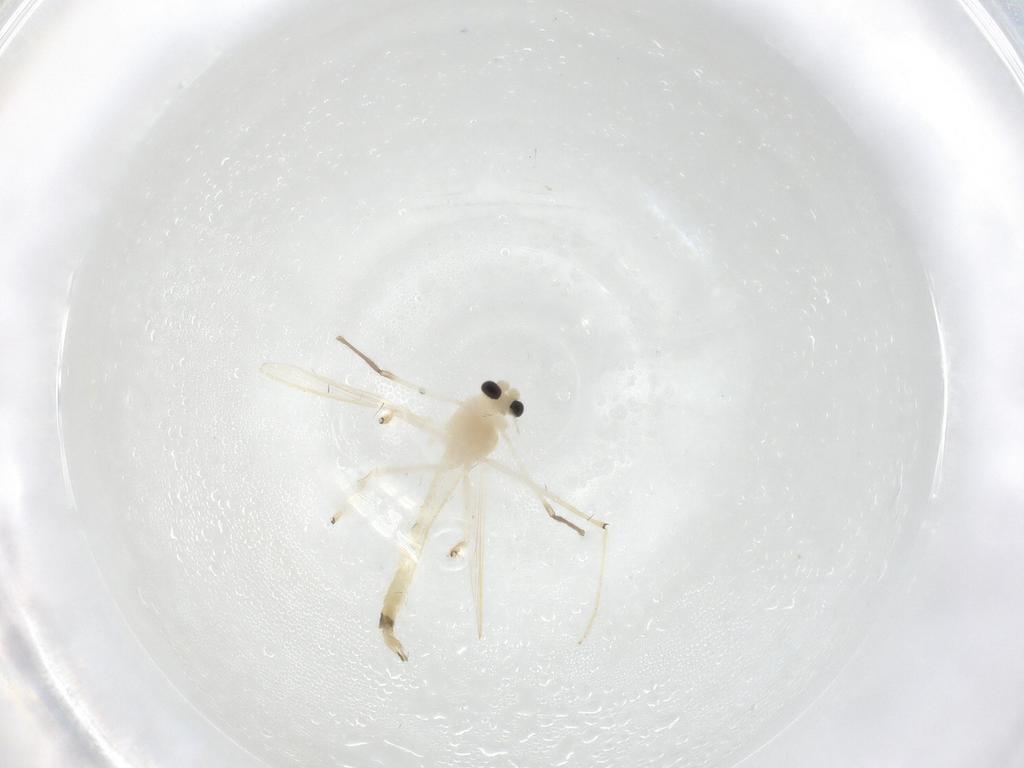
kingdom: Animalia
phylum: Arthropoda
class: Insecta
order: Diptera
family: Chironomidae
